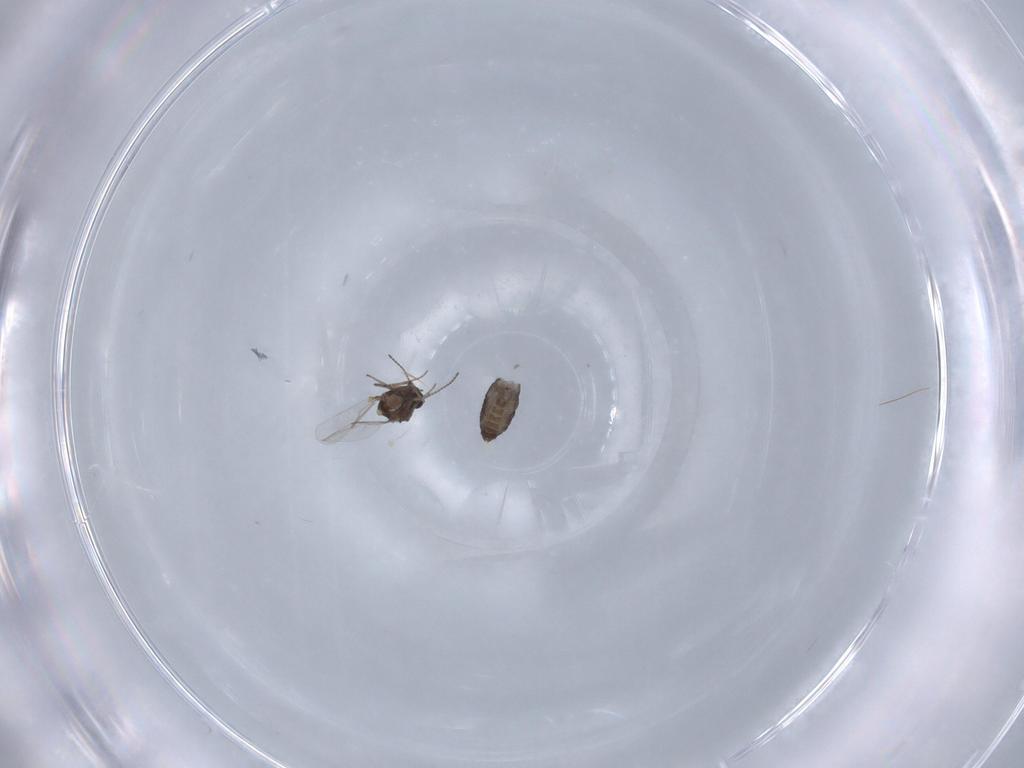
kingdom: Animalia
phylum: Arthropoda
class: Insecta
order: Diptera
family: Ceratopogonidae
